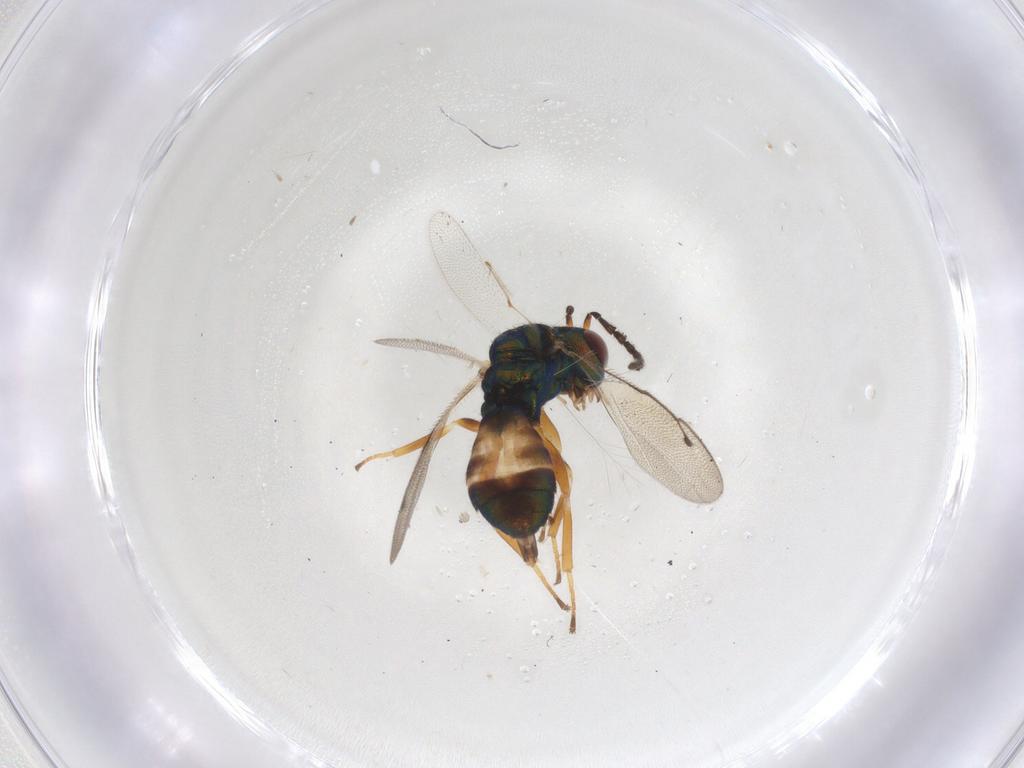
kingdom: Animalia
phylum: Arthropoda
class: Insecta
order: Hymenoptera
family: Pteromalidae
